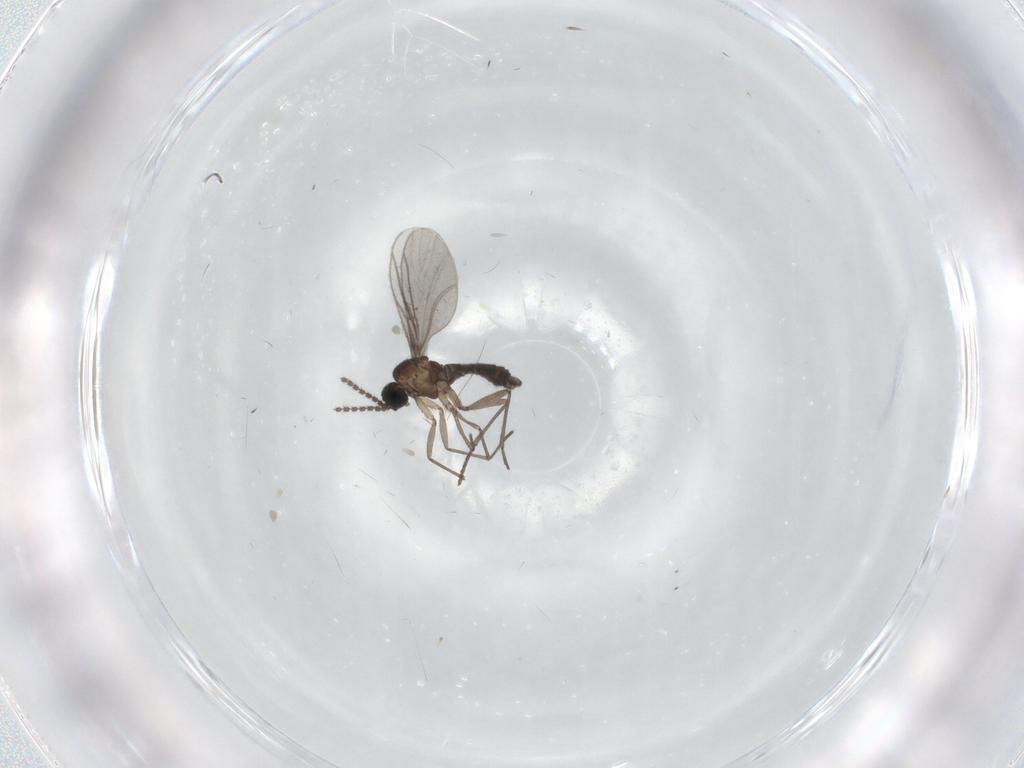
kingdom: Animalia
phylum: Arthropoda
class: Insecta
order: Diptera
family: Sciaridae
